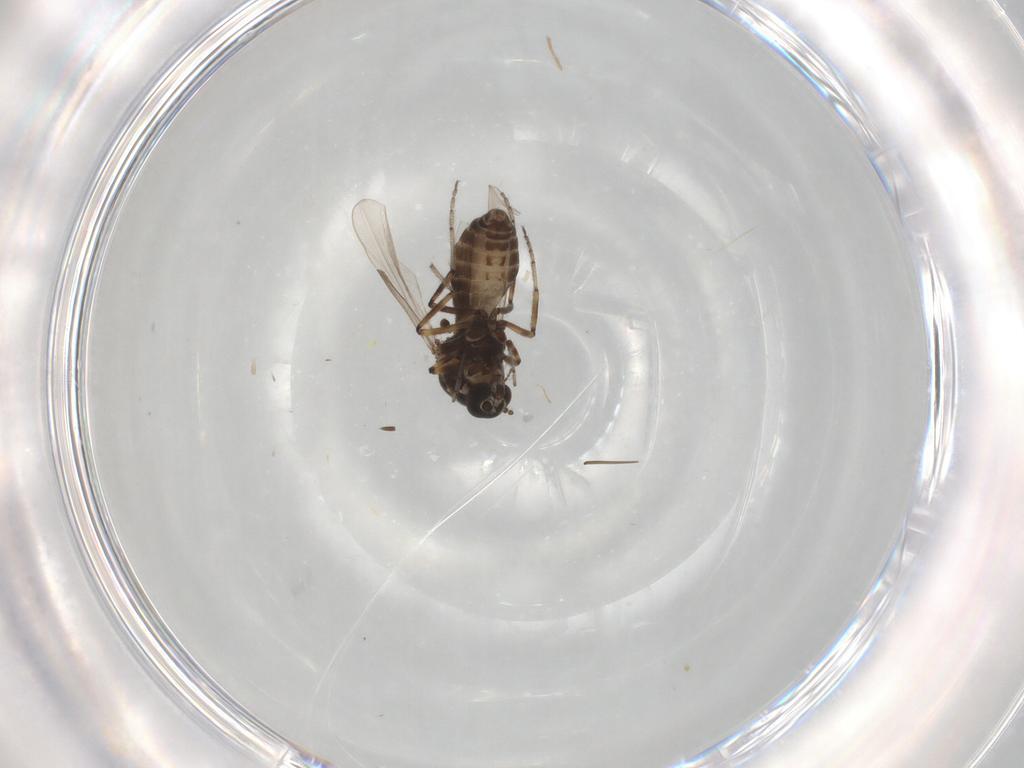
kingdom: Animalia
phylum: Arthropoda
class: Insecta
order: Diptera
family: Ceratopogonidae
